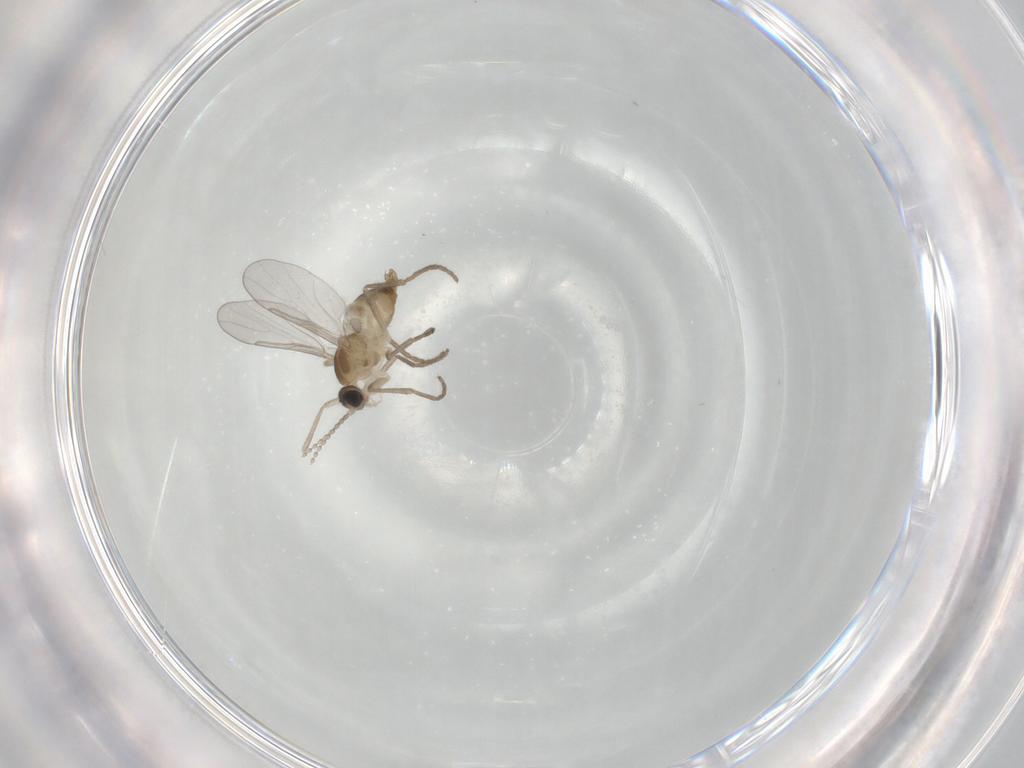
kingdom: Animalia
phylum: Arthropoda
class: Insecta
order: Diptera
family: Cecidomyiidae
